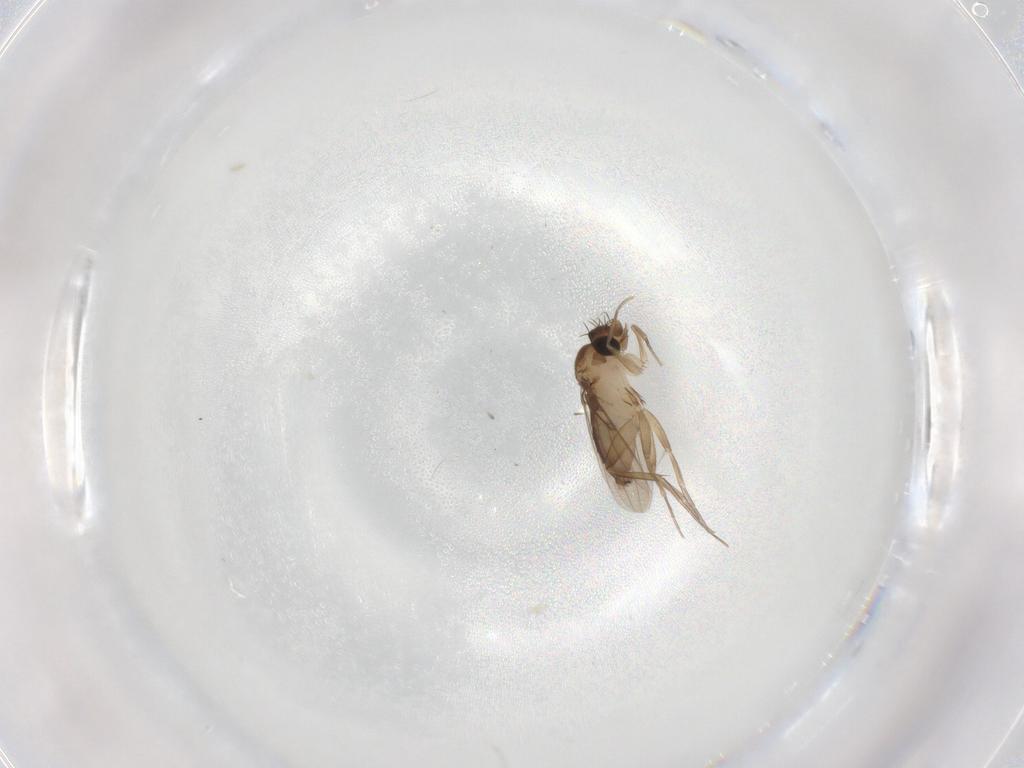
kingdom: Animalia
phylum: Arthropoda
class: Insecta
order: Diptera
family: Phoridae
